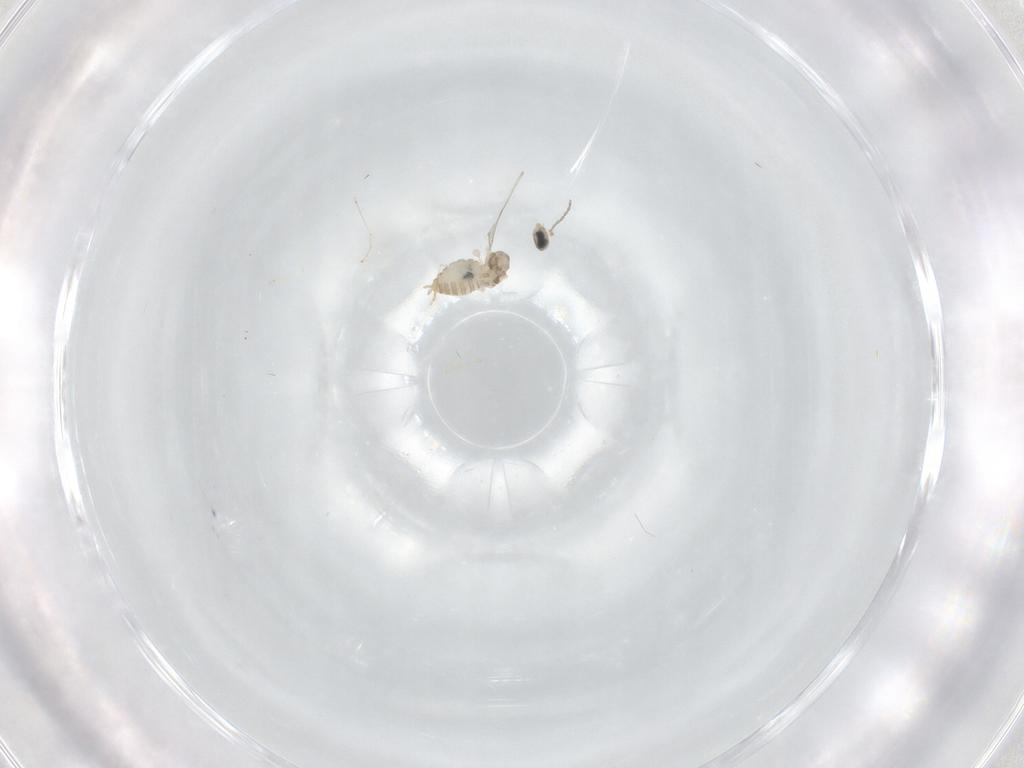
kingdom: Animalia
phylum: Arthropoda
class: Insecta
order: Diptera
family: Cecidomyiidae
